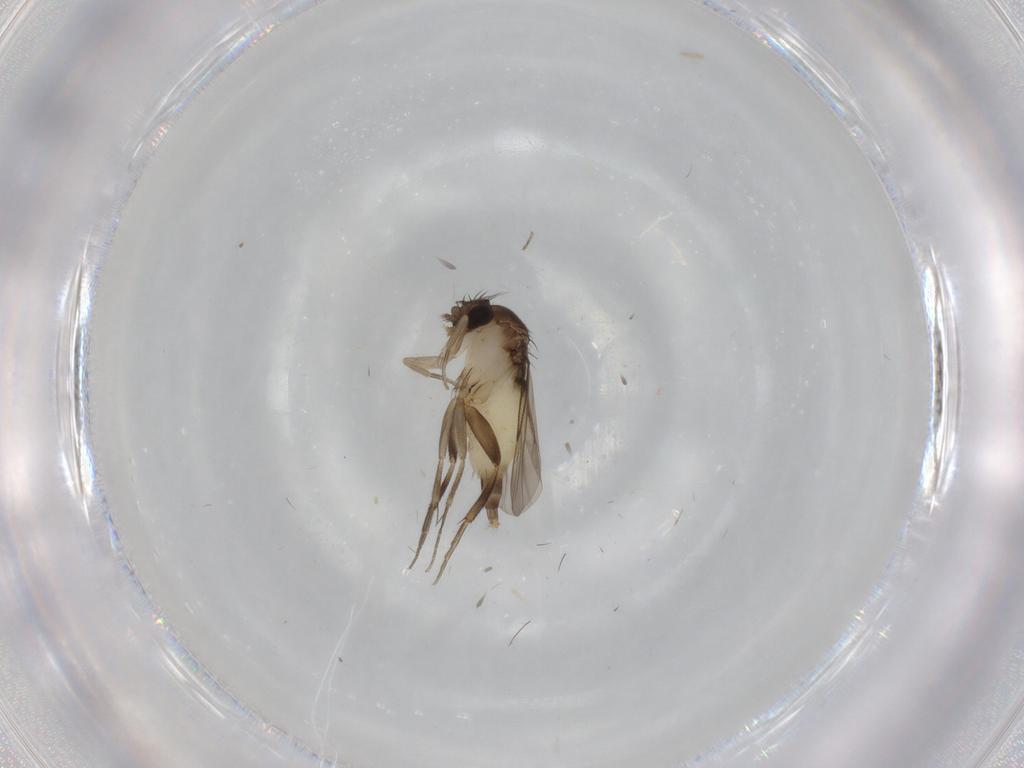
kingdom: Animalia
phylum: Arthropoda
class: Insecta
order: Diptera
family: Phoridae
